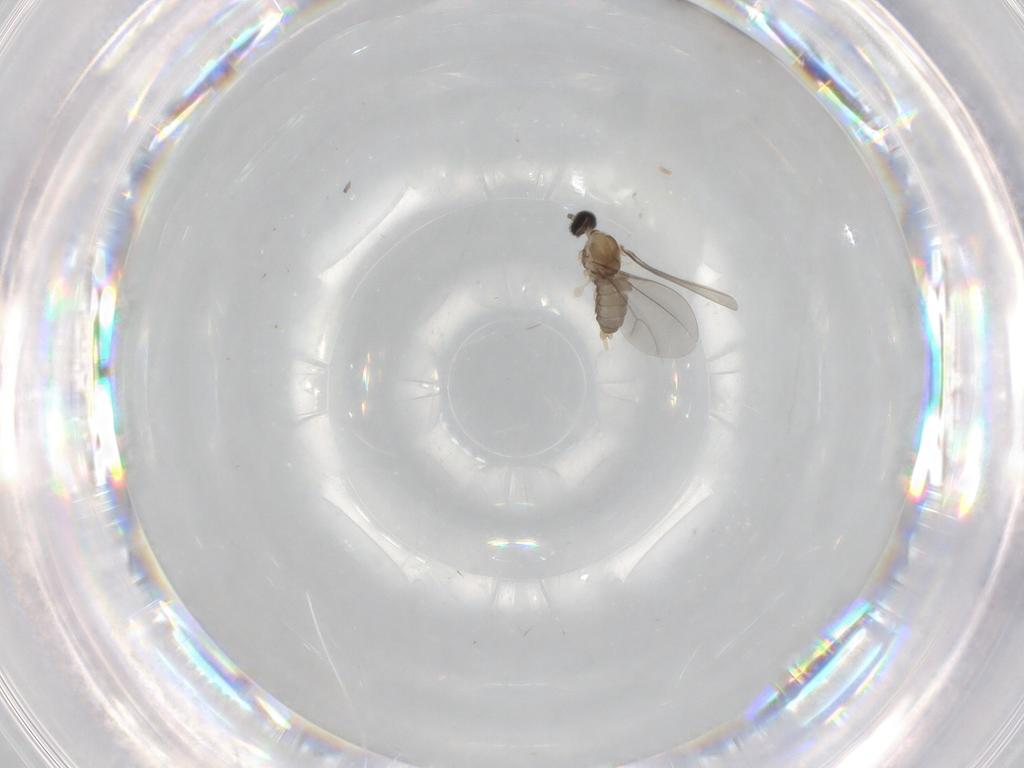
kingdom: Animalia
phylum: Arthropoda
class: Insecta
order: Diptera
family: Cecidomyiidae
